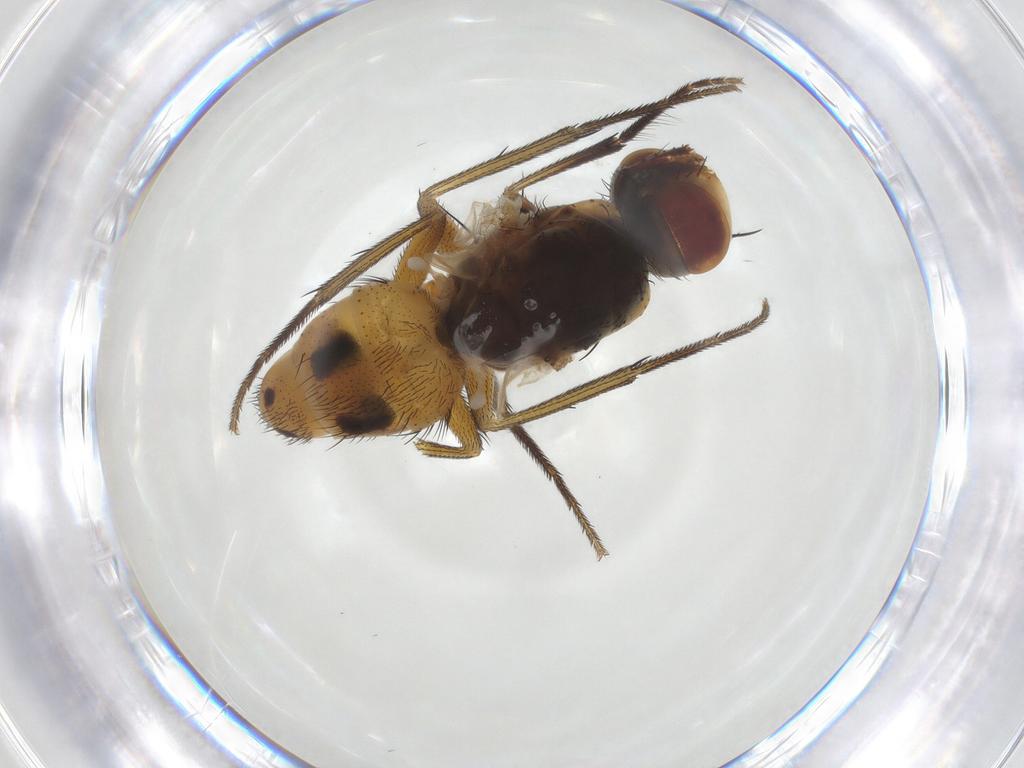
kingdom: Animalia
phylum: Arthropoda
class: Insecta
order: Diptera
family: Muscidae
